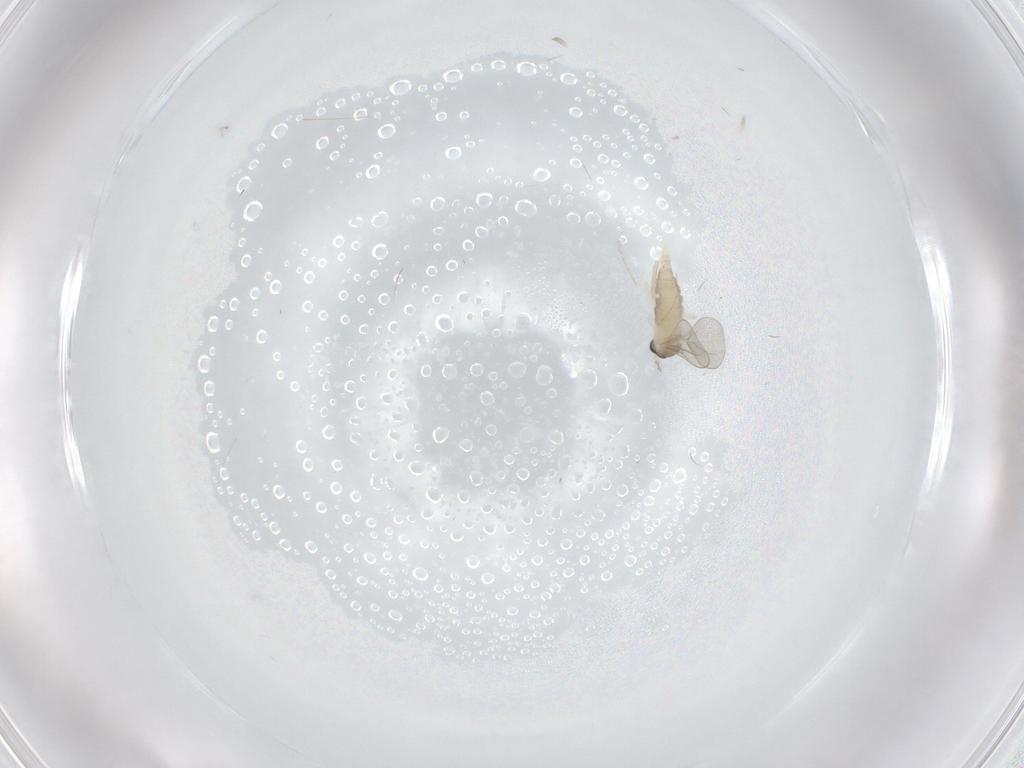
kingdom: Animalia
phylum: Arthropoda
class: Insecta
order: Diptera
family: Cecidomyiidae
